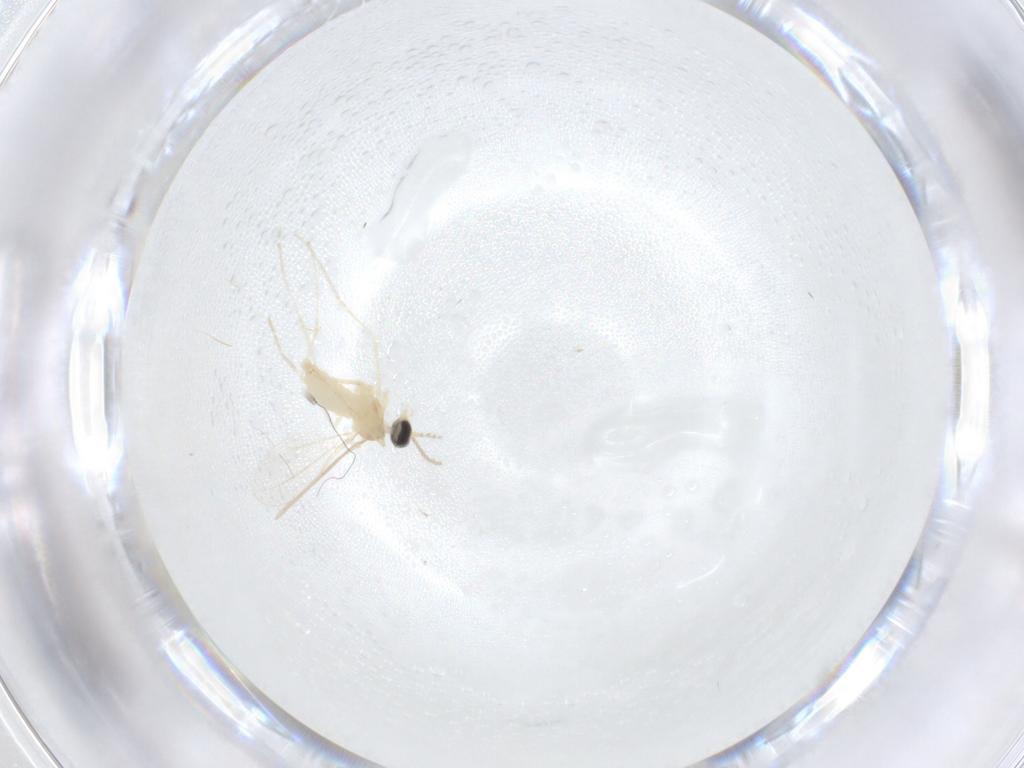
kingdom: Animalia
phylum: Arthropoda
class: Insecta
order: Diptera
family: Cecidomyiidae
